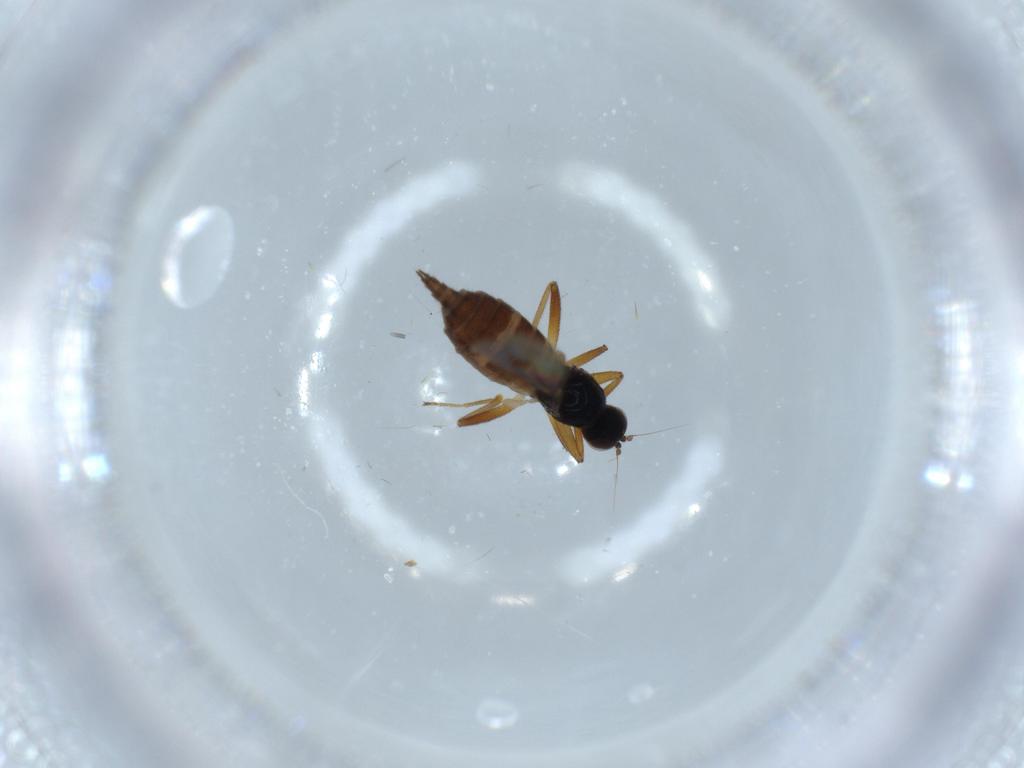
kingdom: Animalia
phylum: Arthropoda
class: Insecta
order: Diptera
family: Hybotidae
